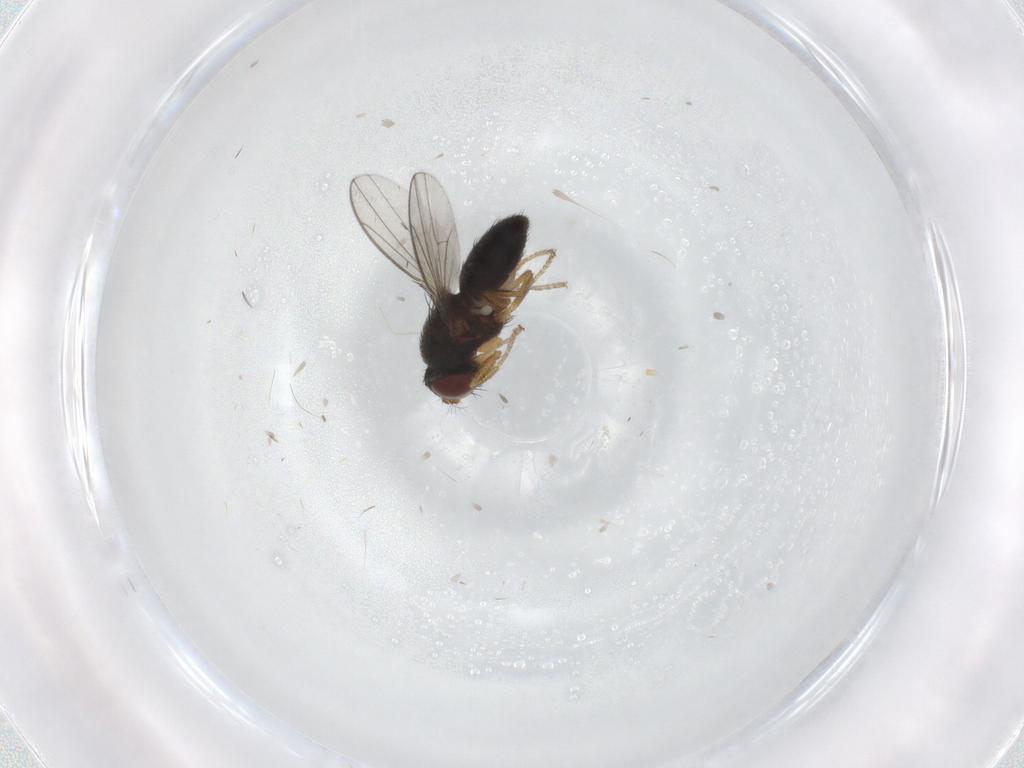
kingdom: Animalia
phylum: Arthropoda
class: Insecta
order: Diptera
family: Ephydridae
